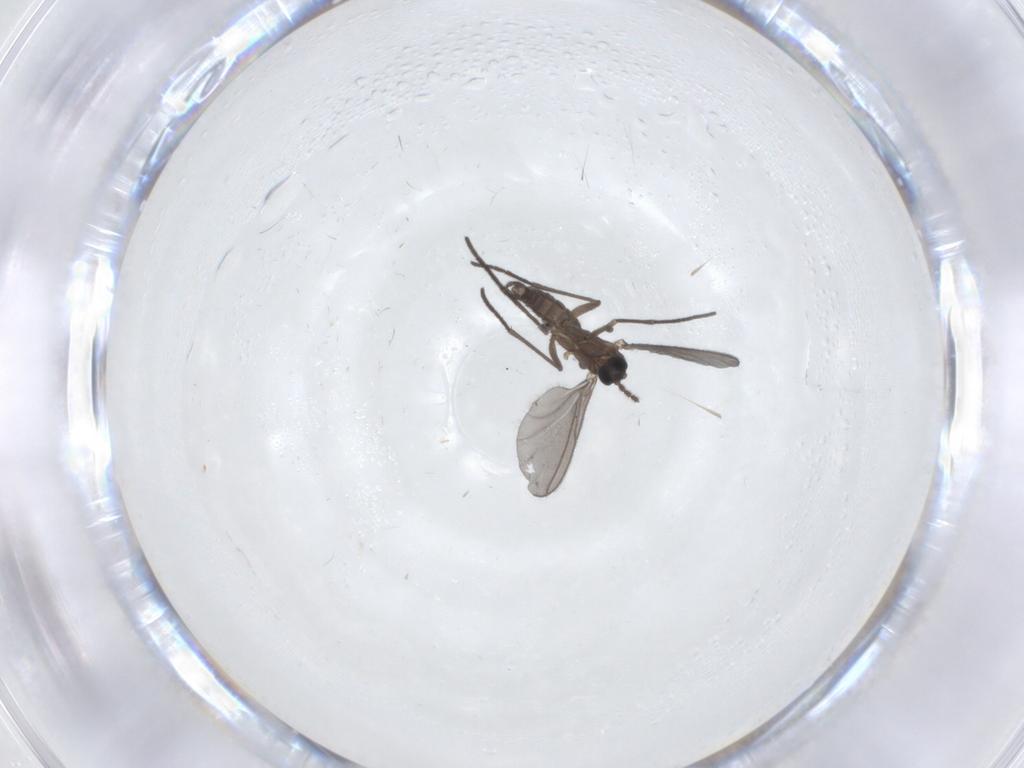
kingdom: Animalia
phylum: Arthropoda
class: Insecta
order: Diptera
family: Sciaridae
